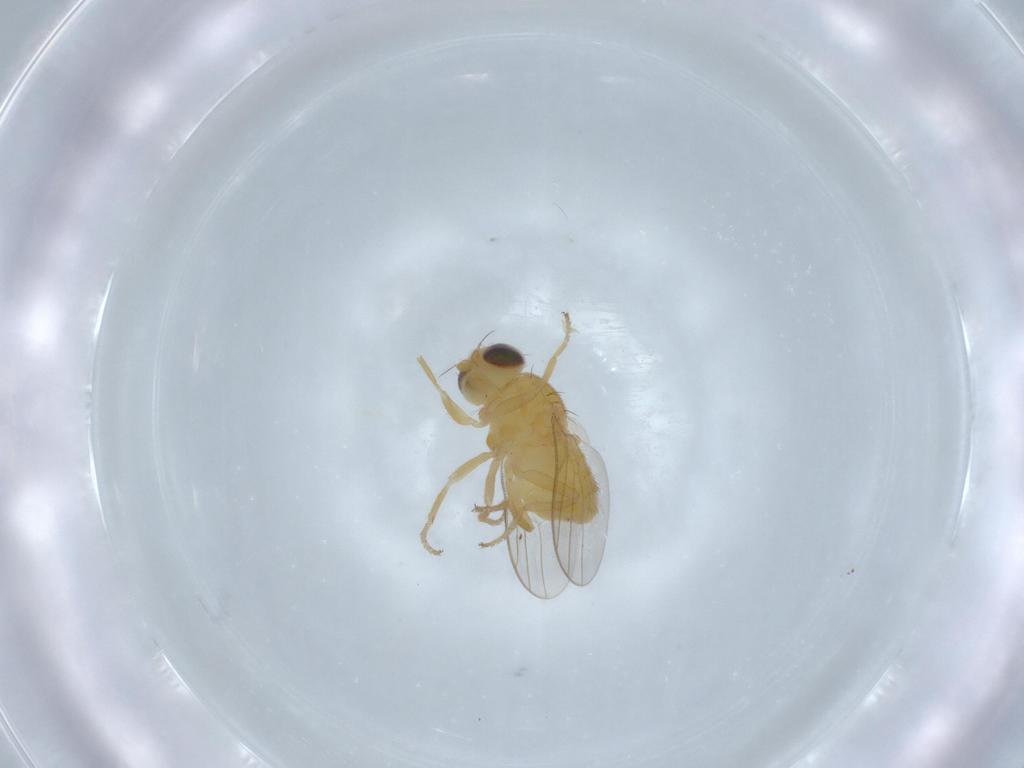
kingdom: Animalia
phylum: Arthropoda
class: Insecta
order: Diptera
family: Chloropidae
